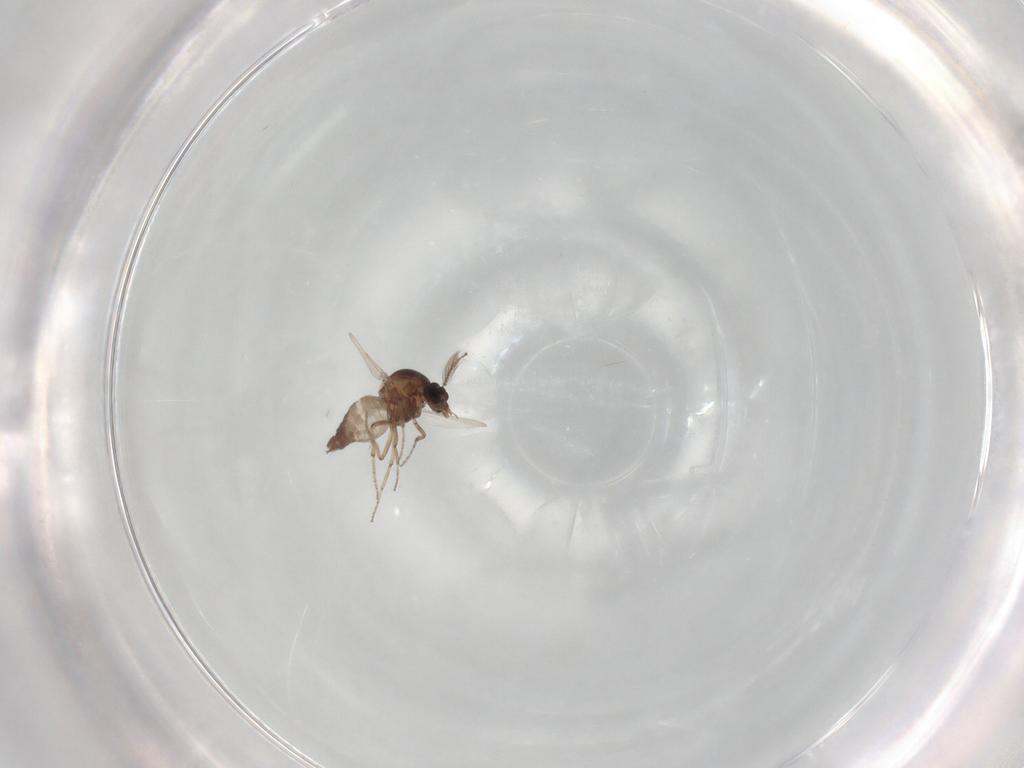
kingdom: Animalia
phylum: Arthropoda
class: Insecta
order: Diptera
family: Ceratopogonidae
